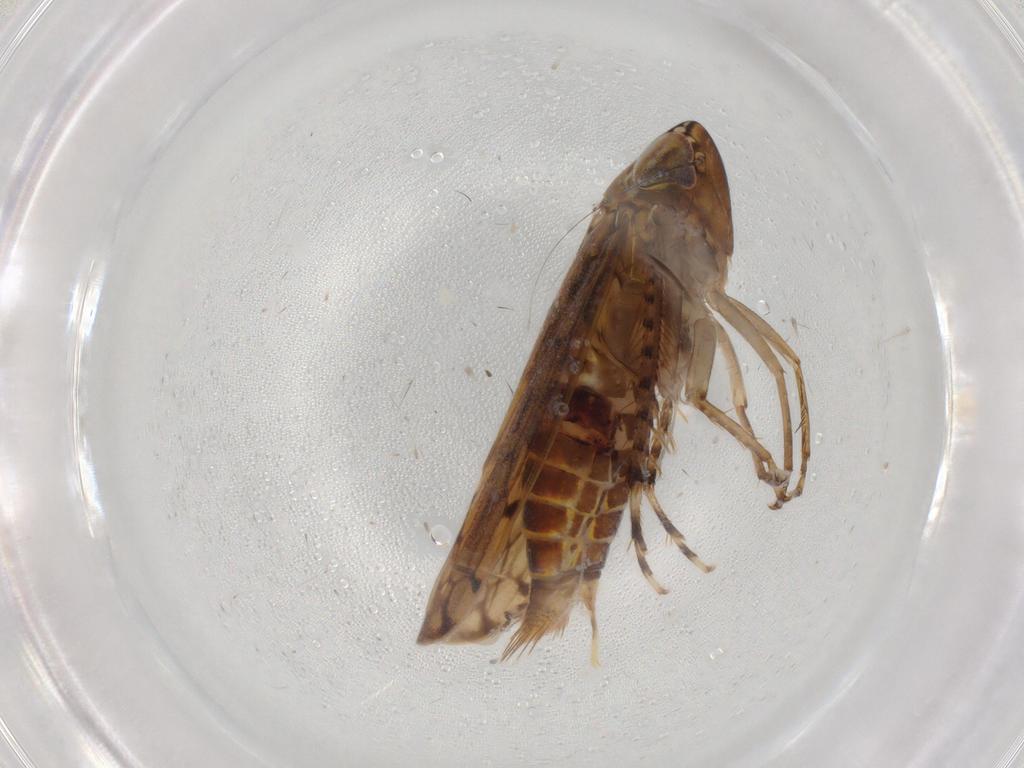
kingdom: Animalia
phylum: Arthropoda
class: Insecta
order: Hemiptera
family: Cicadellidae
